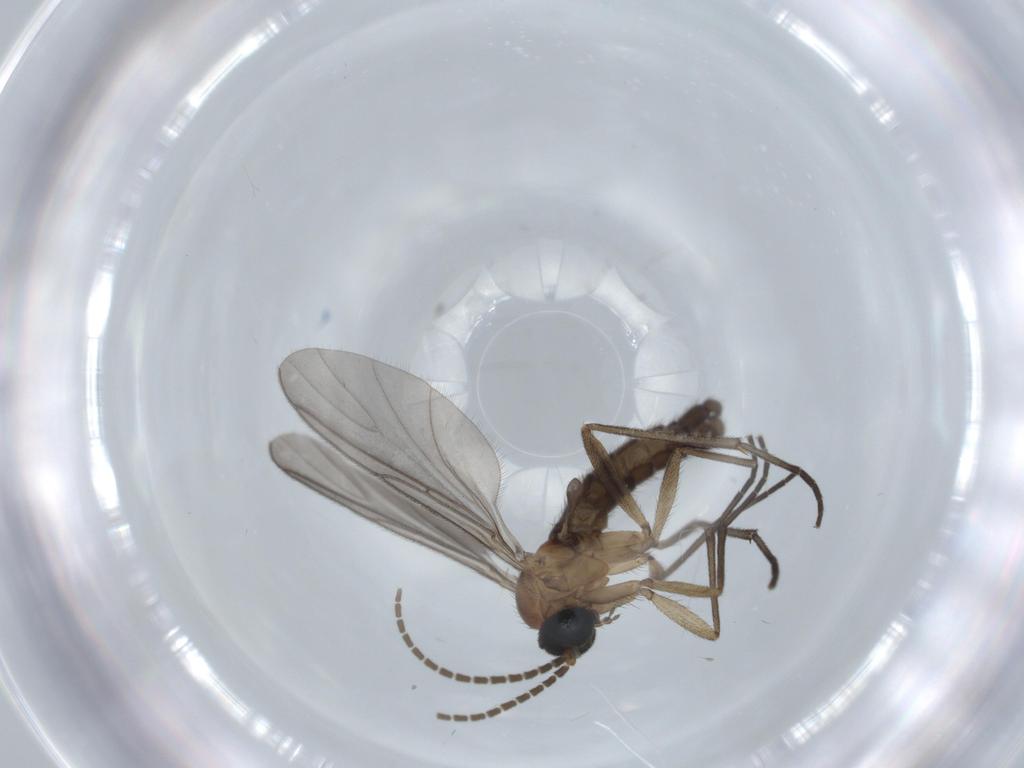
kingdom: Animalia
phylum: Arthropoda
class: Insecta
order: Diptera
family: Sciaridae
